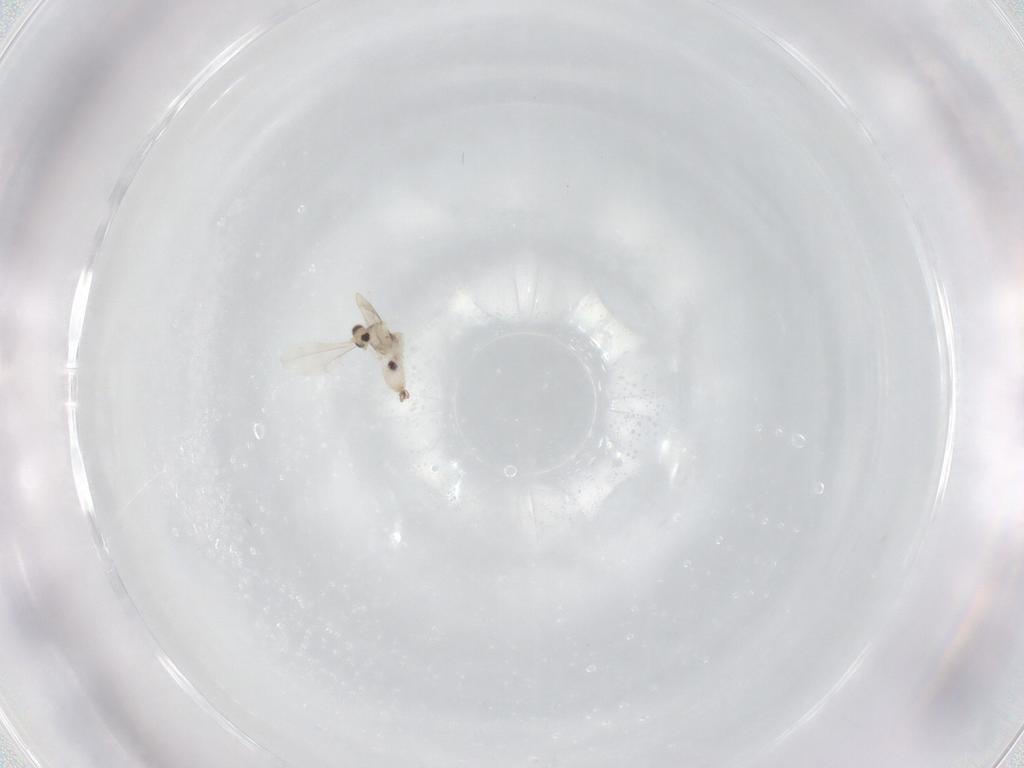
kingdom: Animalia
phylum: Arthropoda
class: Insecta
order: Diptera
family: Cecidomyiidae
